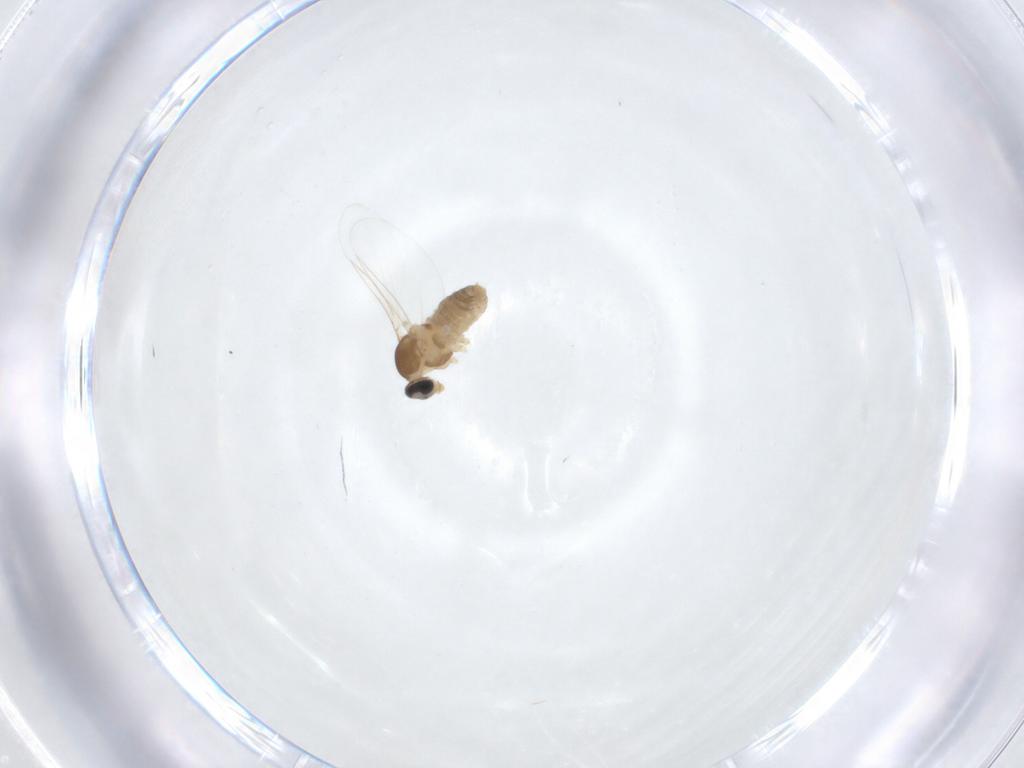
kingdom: Animalia
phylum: Arthropoda
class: Insecta
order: Diptera
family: Cecidomyiidae
